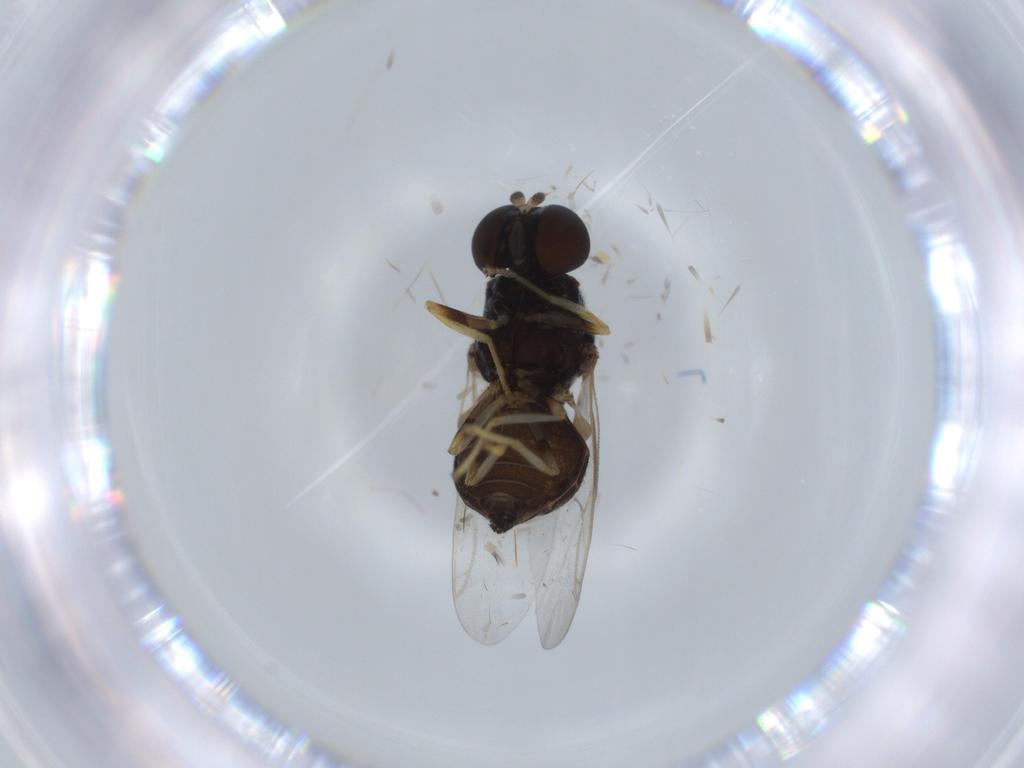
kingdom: Animalia
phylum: Arthropoda
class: Insecta
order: Diptera
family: Stratiomyidae
